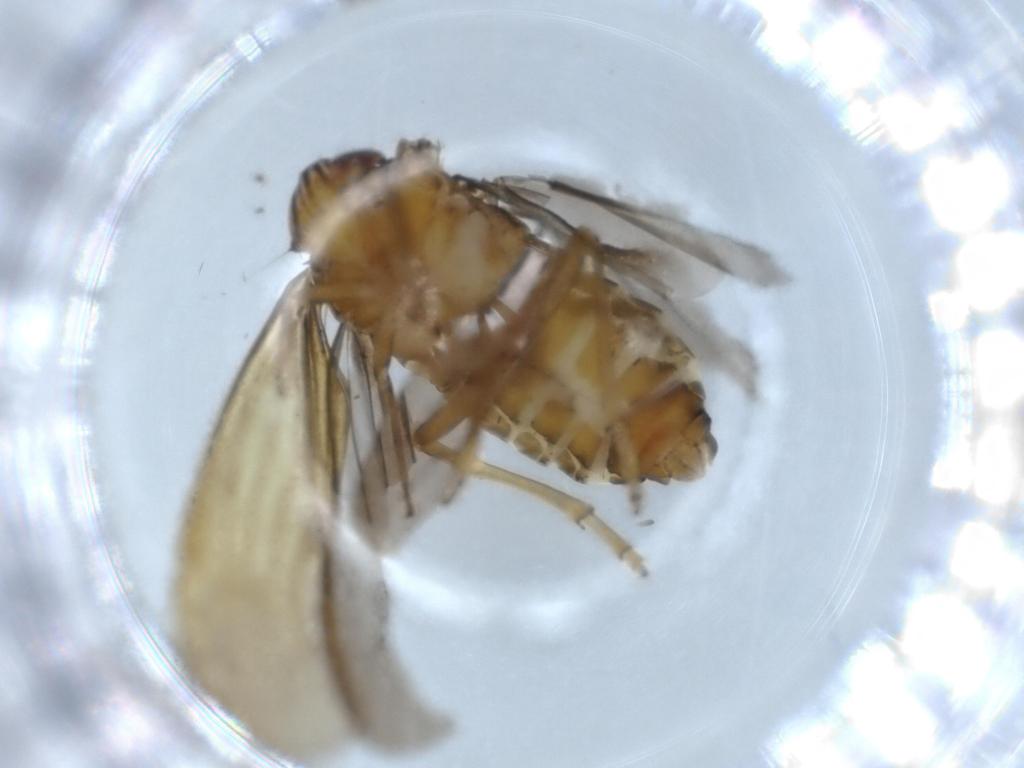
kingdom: Animalia
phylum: Arthropoda
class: Insecta
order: Hemiptera
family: Achilidae
